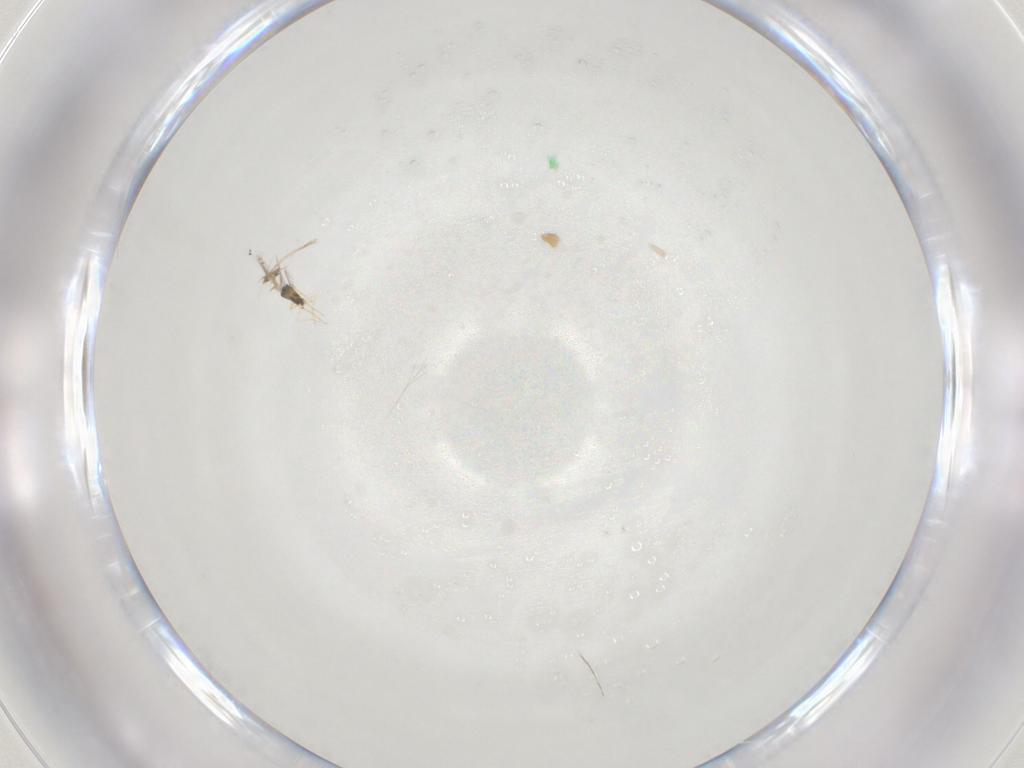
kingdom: Animalia
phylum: Arthropoda
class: Insecta
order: Hymenoptera
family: Mymaridae
